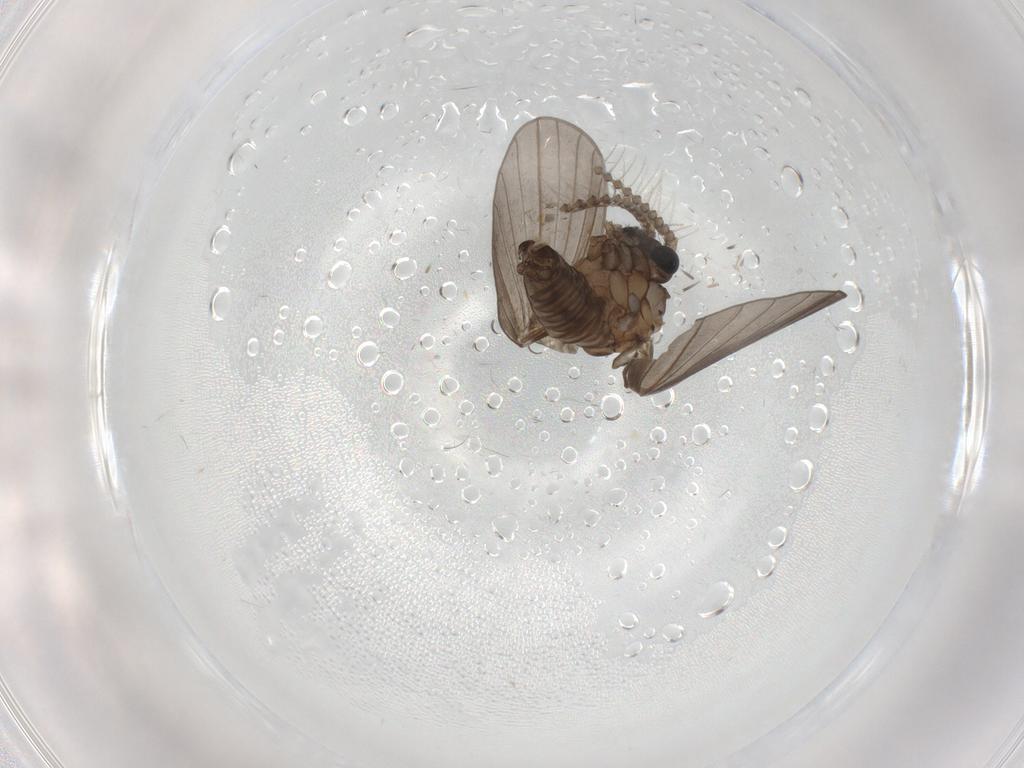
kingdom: Animalia
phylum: Arthropoda
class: Insecta
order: Diptera
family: Psychodidae
